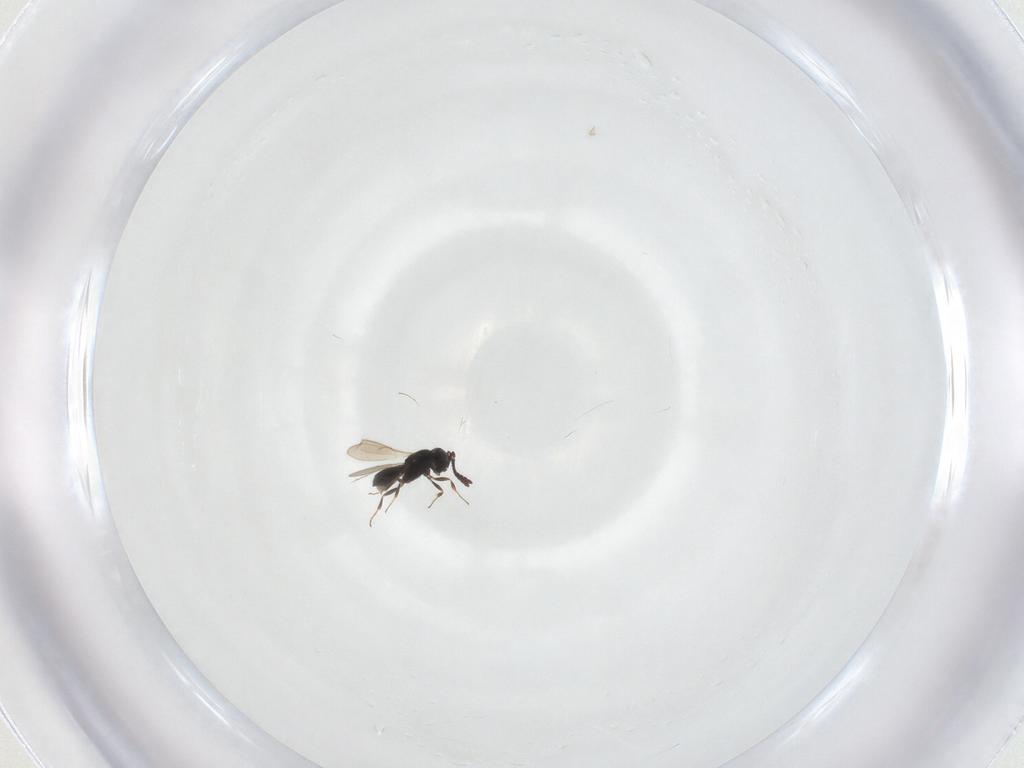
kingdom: Animalia
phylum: Arthropoda
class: Insecta
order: Hymenoptera
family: Scelionidae
